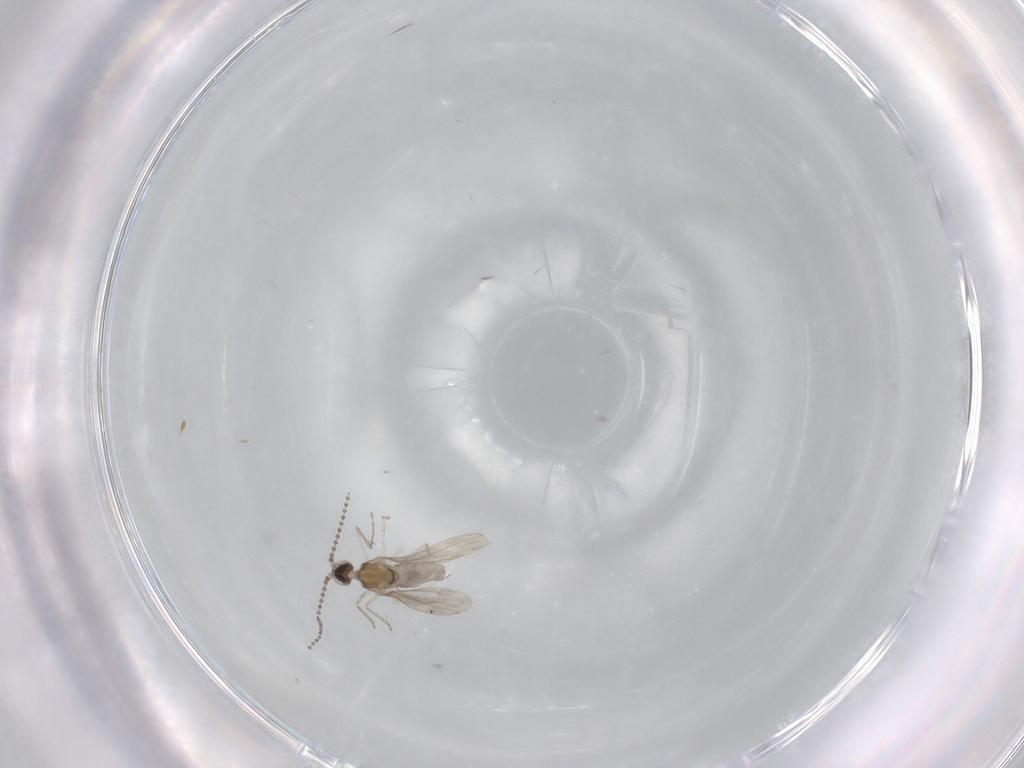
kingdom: Animalia
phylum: Arthropoda
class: Insecta
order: Diptera
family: Cecidomyiidae
